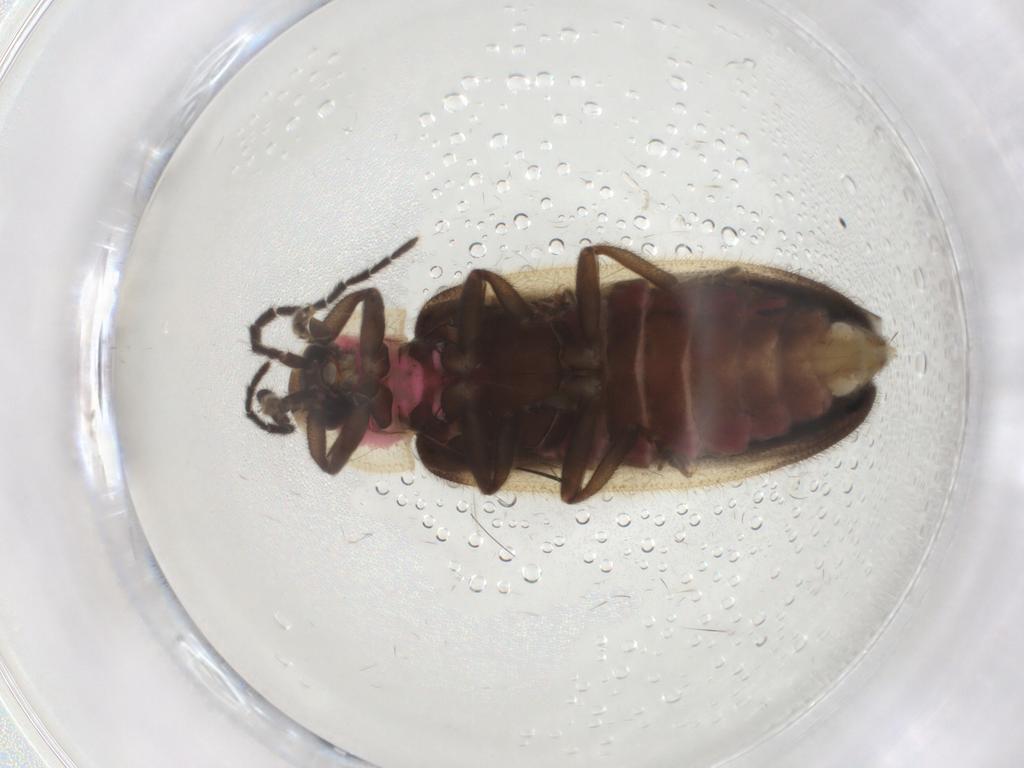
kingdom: Animalia
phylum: Arthropoda
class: Insecta
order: Coleoptera
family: Lampyridae
